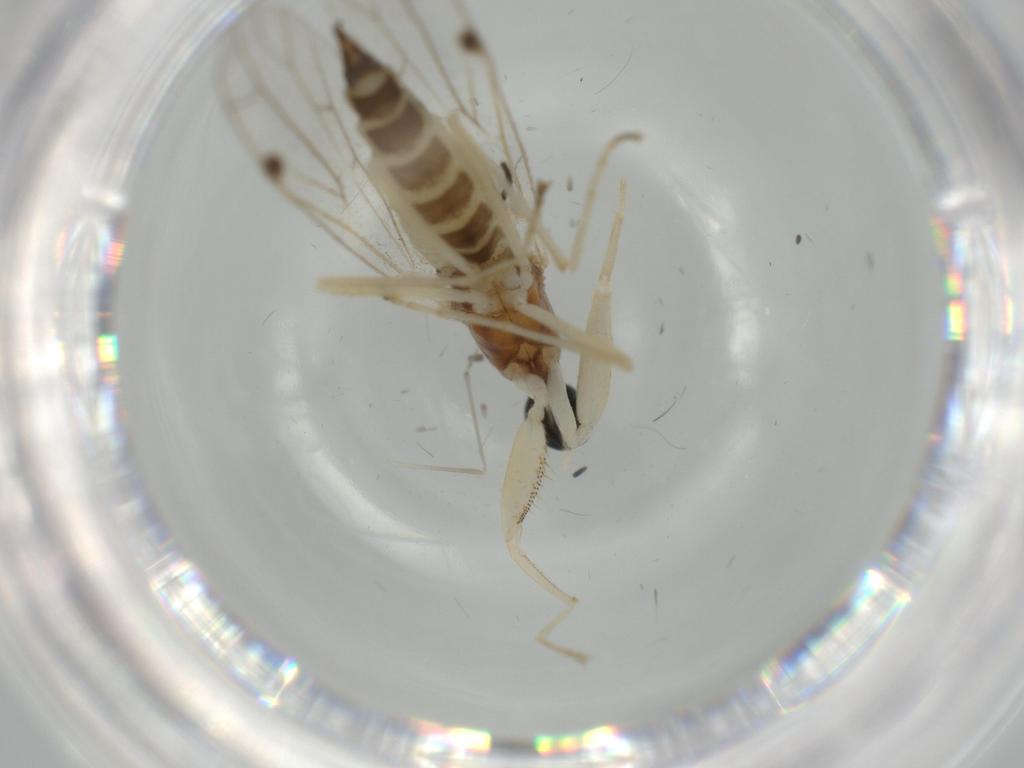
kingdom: Animalia
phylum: Arthropoda
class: Insecta
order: Diptera
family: Empididae
